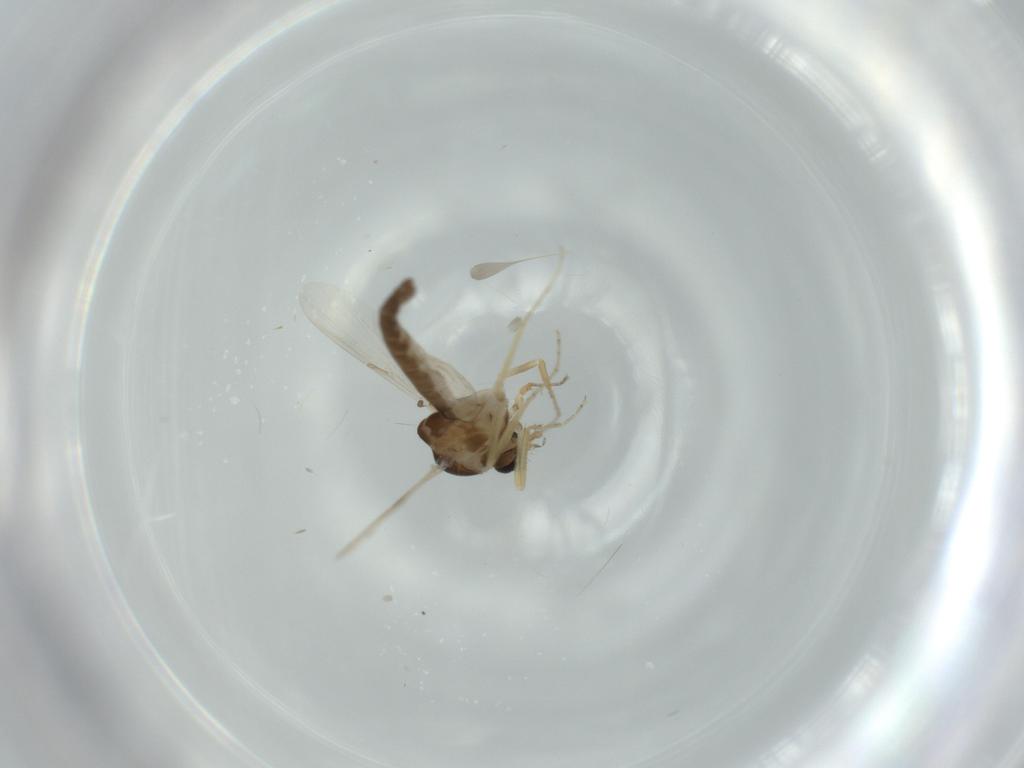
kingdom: Animalia
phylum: Arthropoda
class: Insecta
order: Diptera
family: Ceratopogonidae
